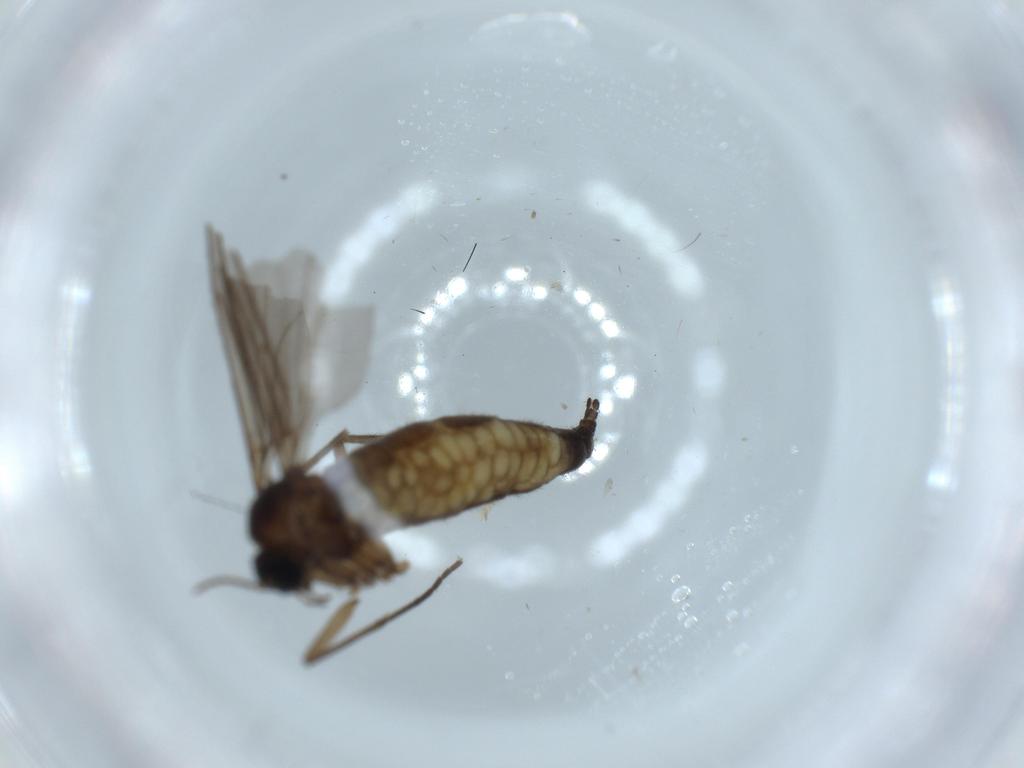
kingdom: Animalia
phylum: Arthropoda
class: Insecta
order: Diptera
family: Sciaridae
